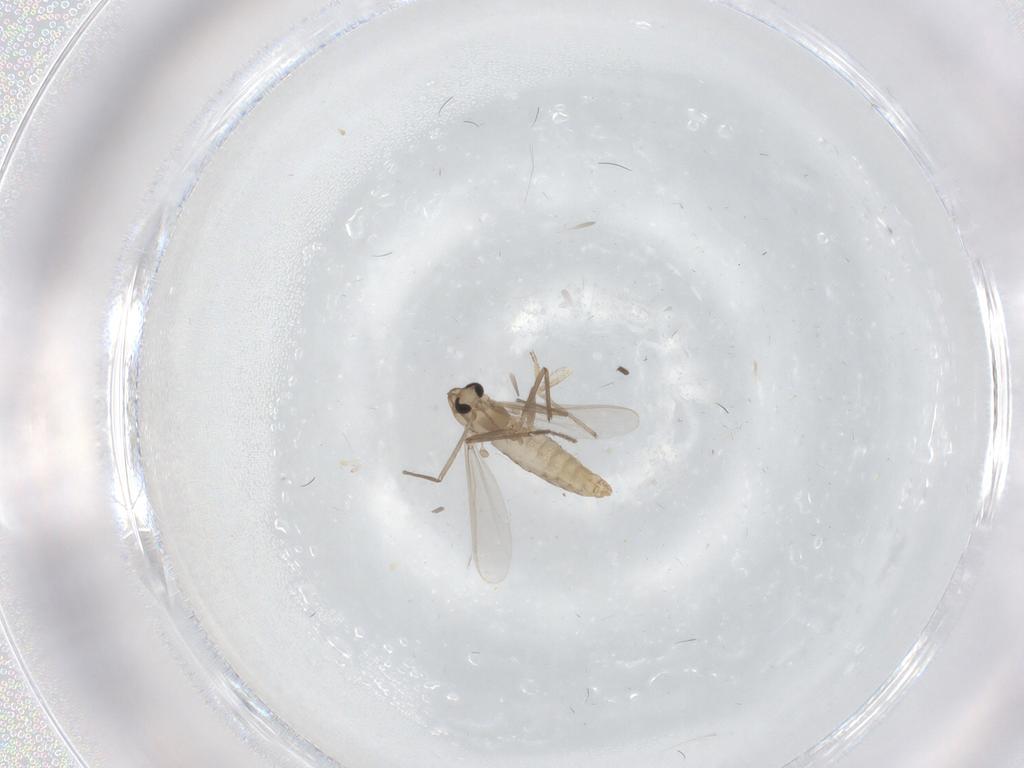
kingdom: Animalia
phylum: Arthropoda
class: Insecta
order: Diptera
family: Chironomidae
